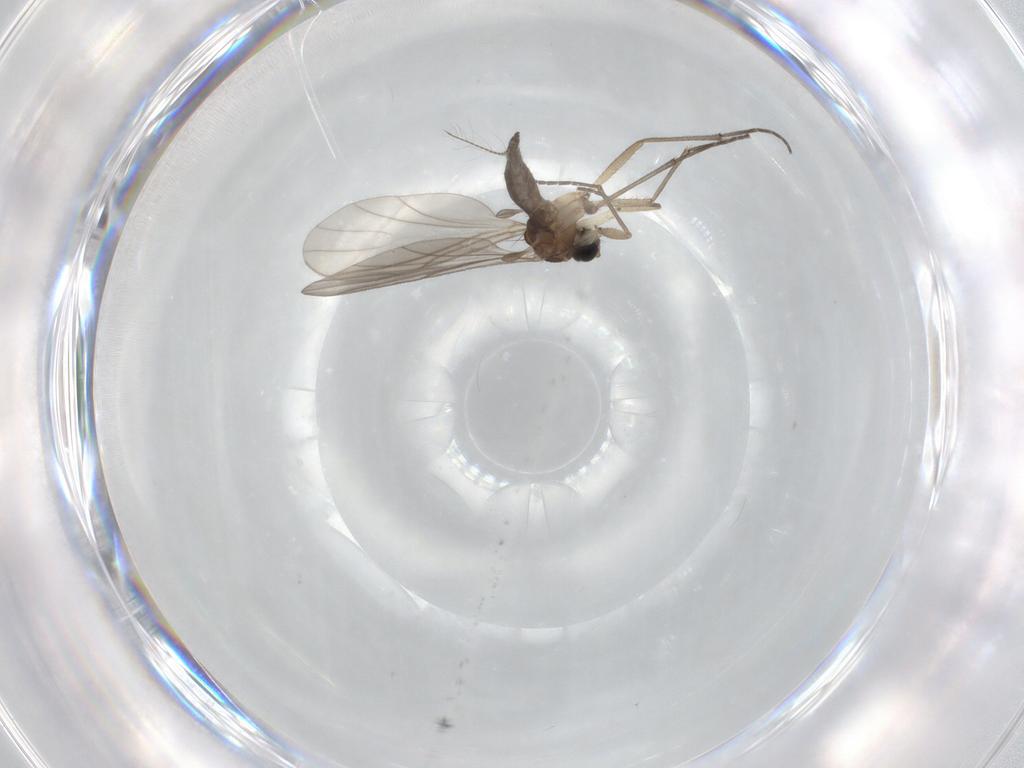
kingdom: Animalia
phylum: Arthropoda
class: Insecta
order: Diptera
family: Sciaridae
